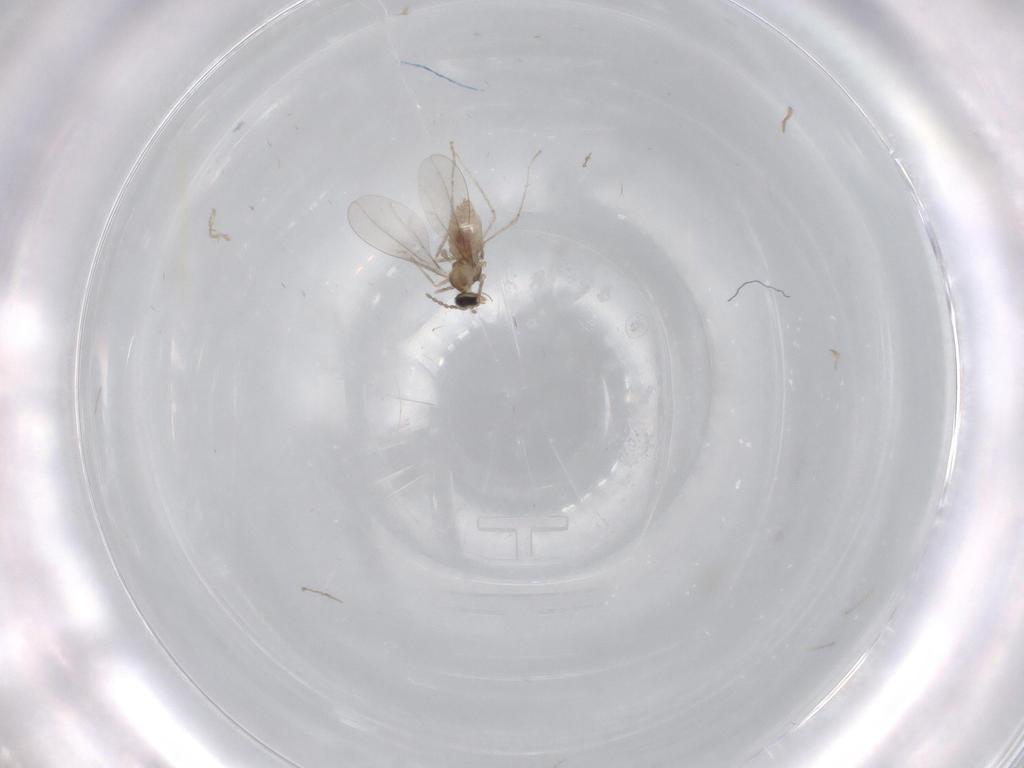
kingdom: Animalia
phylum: Arthropoda
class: Insecta
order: Diptera
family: Cecidomyiidae
